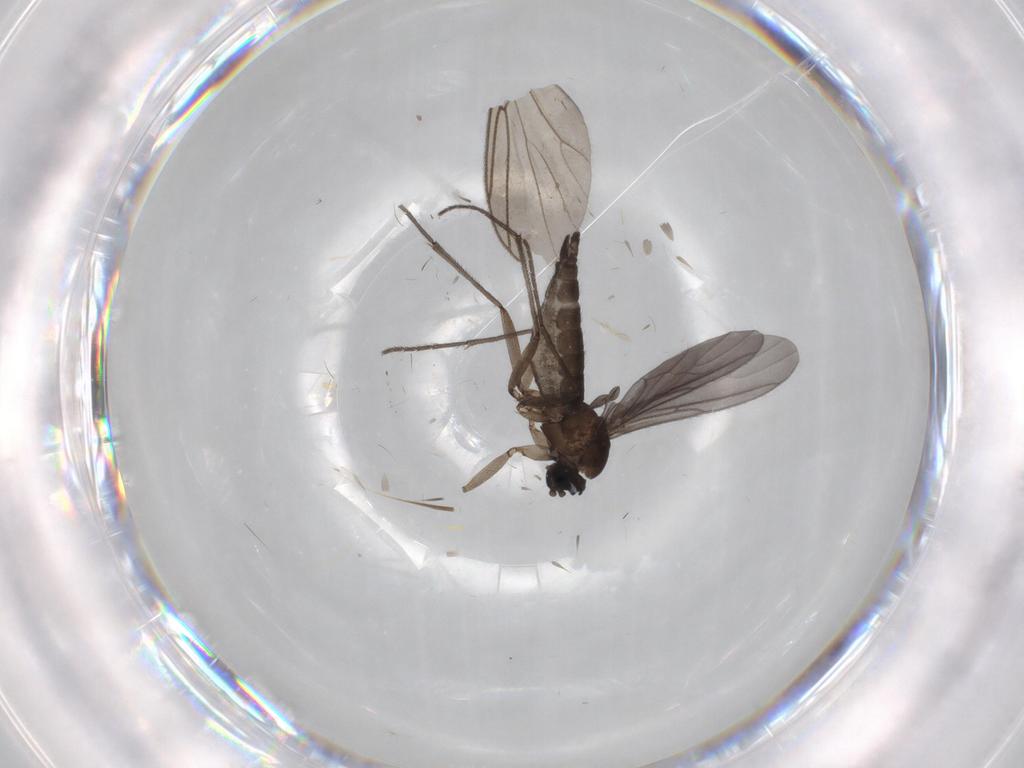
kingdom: Animalia
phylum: Arthropoda
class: Insecta
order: Diptera
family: Sciaridae
